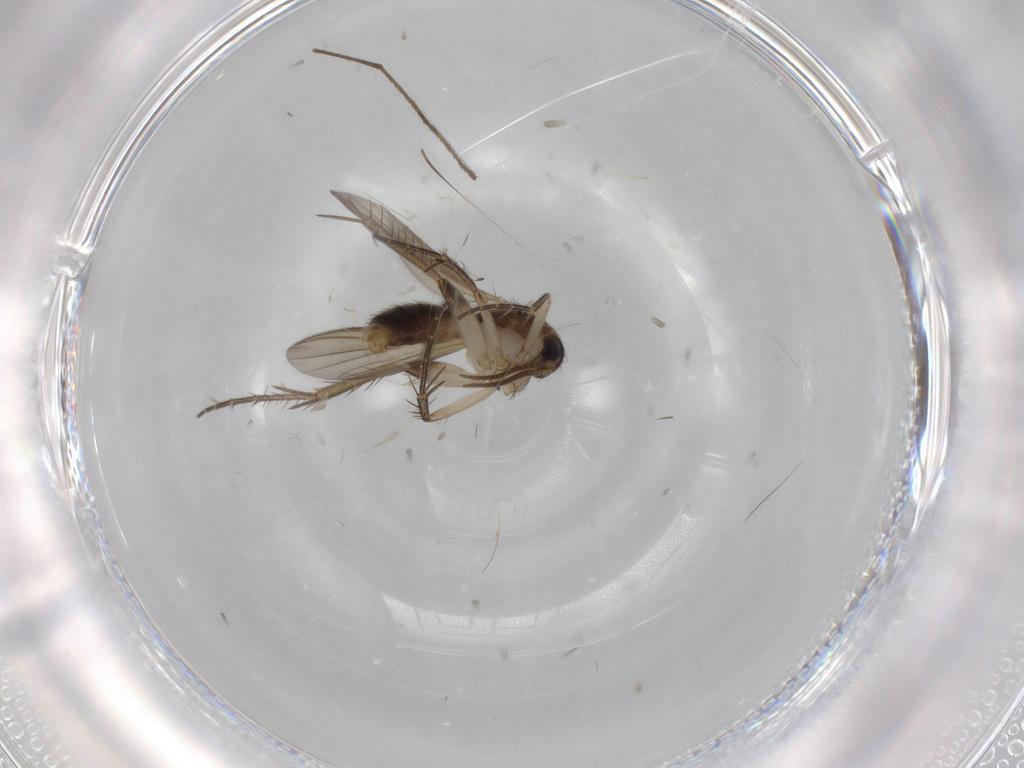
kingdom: Animalia
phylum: Arthropoda
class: Insecta
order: Diptera
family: Mycetophilidae
